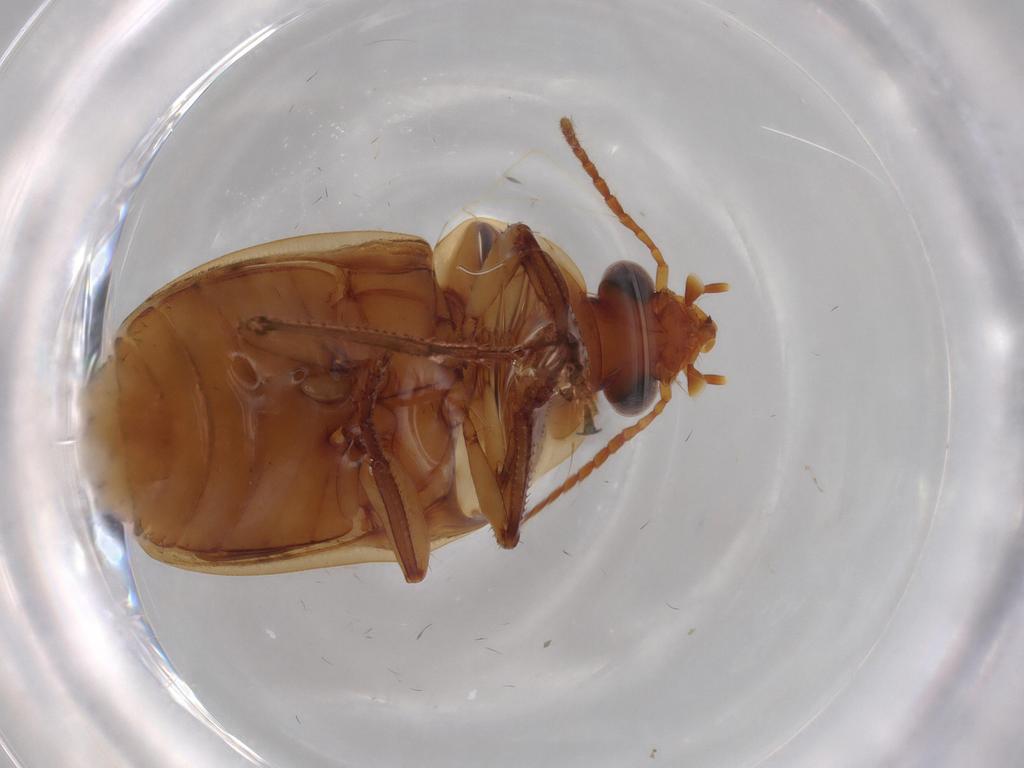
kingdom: Animalia
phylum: Arthropoda
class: Insecta
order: Coleoptera
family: Carabidae
